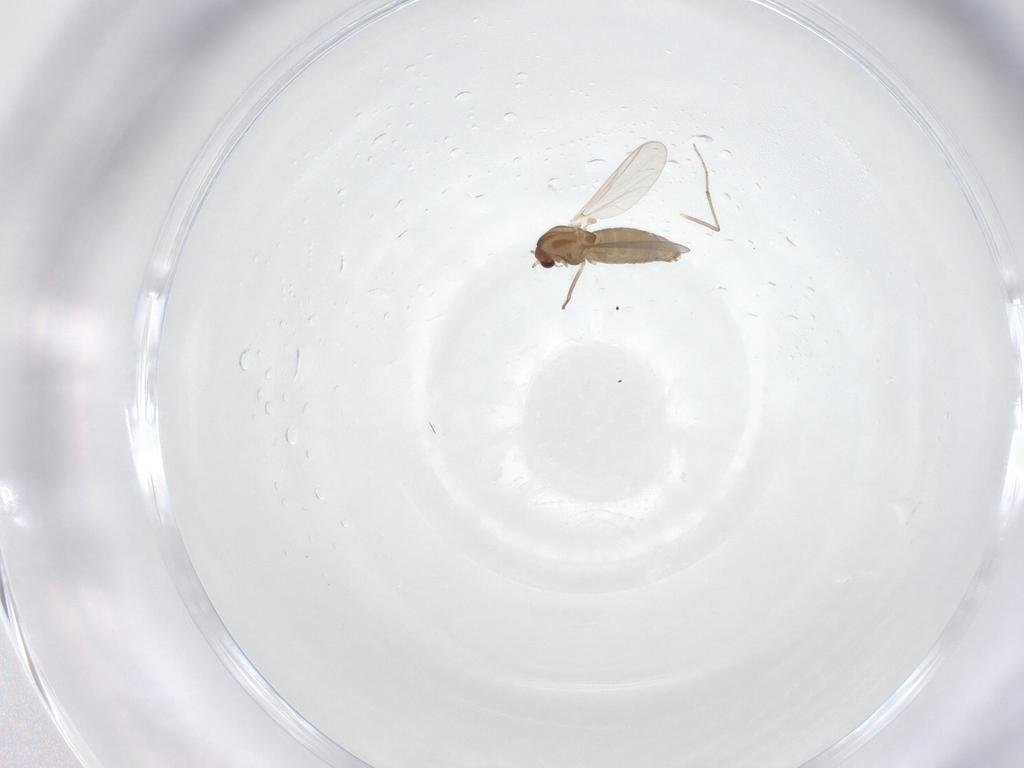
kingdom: Animalia
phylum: Arthropoda
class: Insecta
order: Diptera
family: Chironomidae
